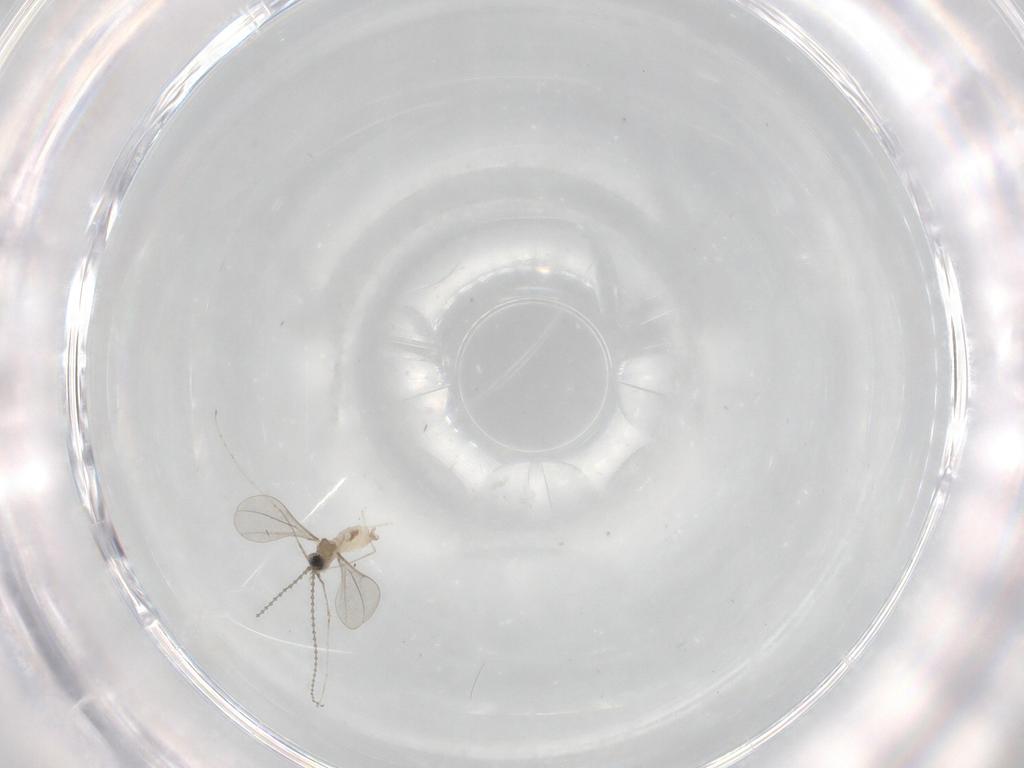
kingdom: Animalia
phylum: Arthropoda
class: Insecta
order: Diptera
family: Cecidomyiidae
